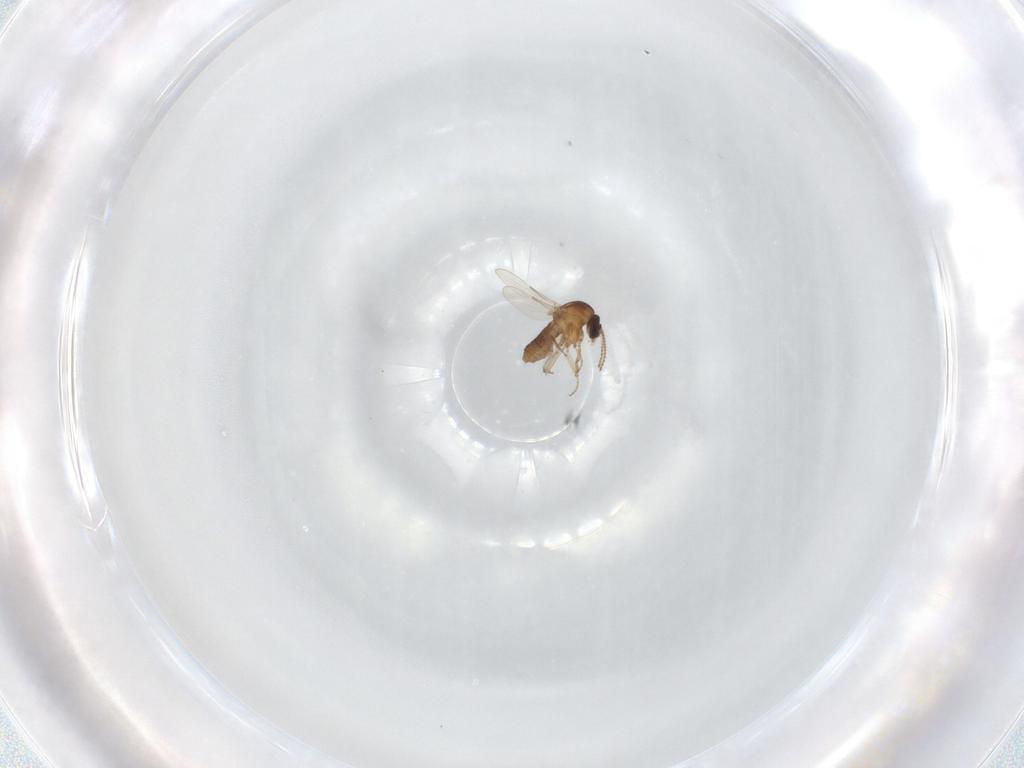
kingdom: Animalia
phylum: Arthropoda
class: Insecta
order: Diptera
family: Ceratopogonidae
